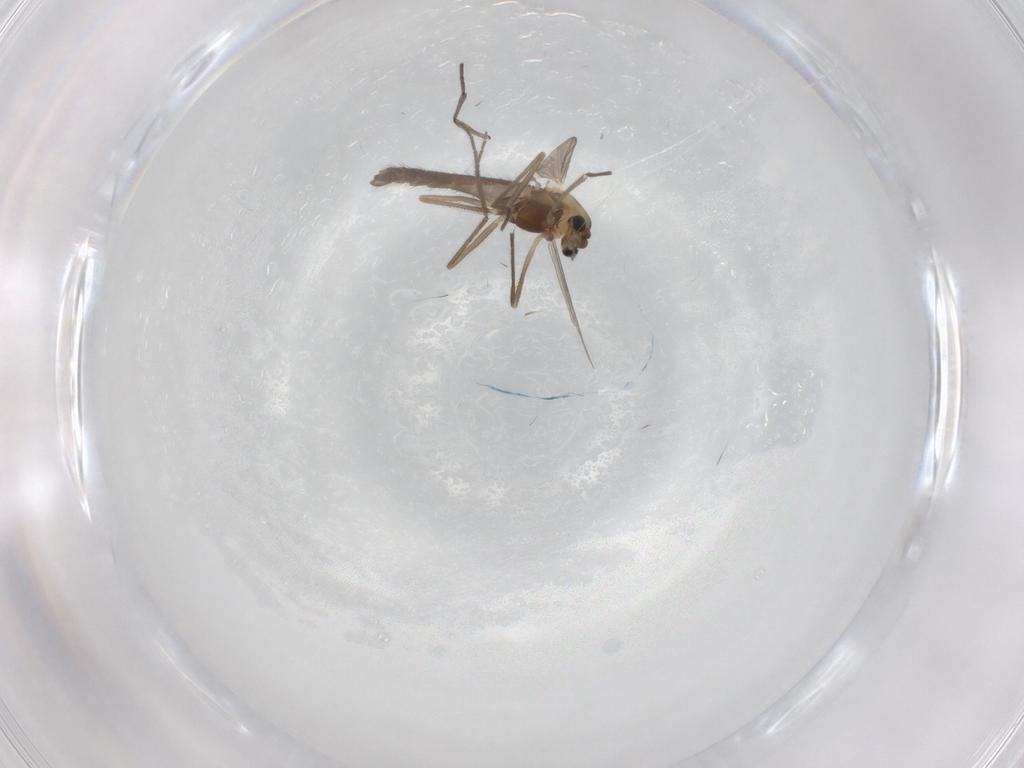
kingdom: Animalia
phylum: Arthropoda
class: Insecta
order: Diptera
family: Chironomidae
